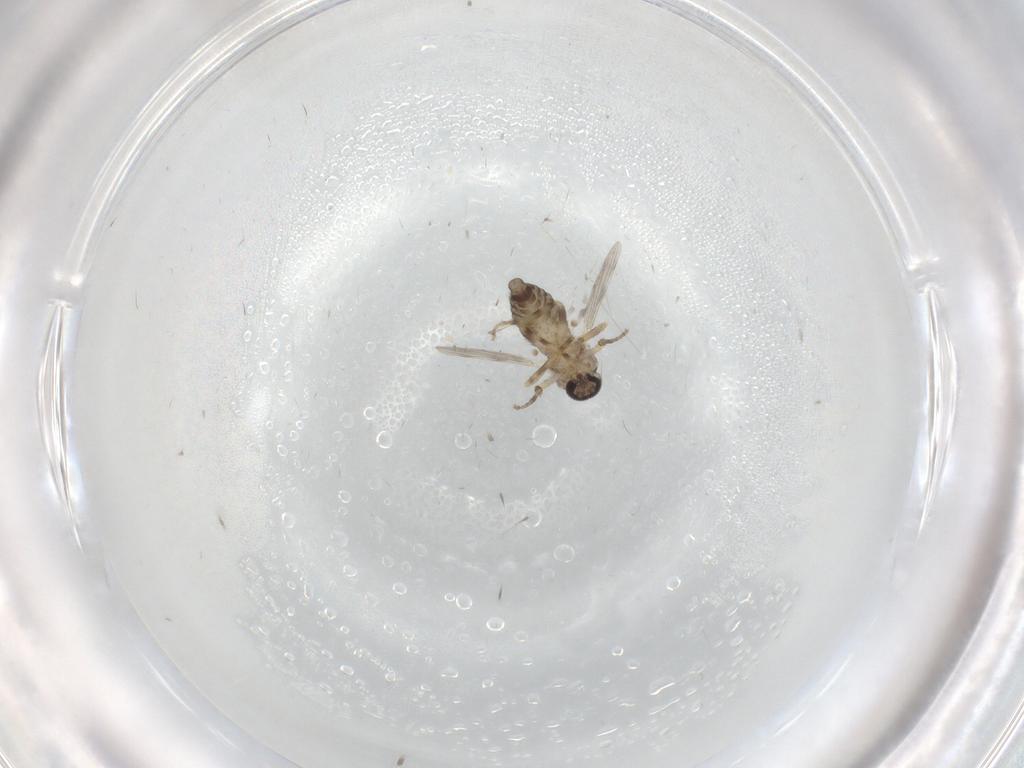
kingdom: Animalia
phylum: Arthropoda
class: Insecta
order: Diptera
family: Ceratopogonidae
